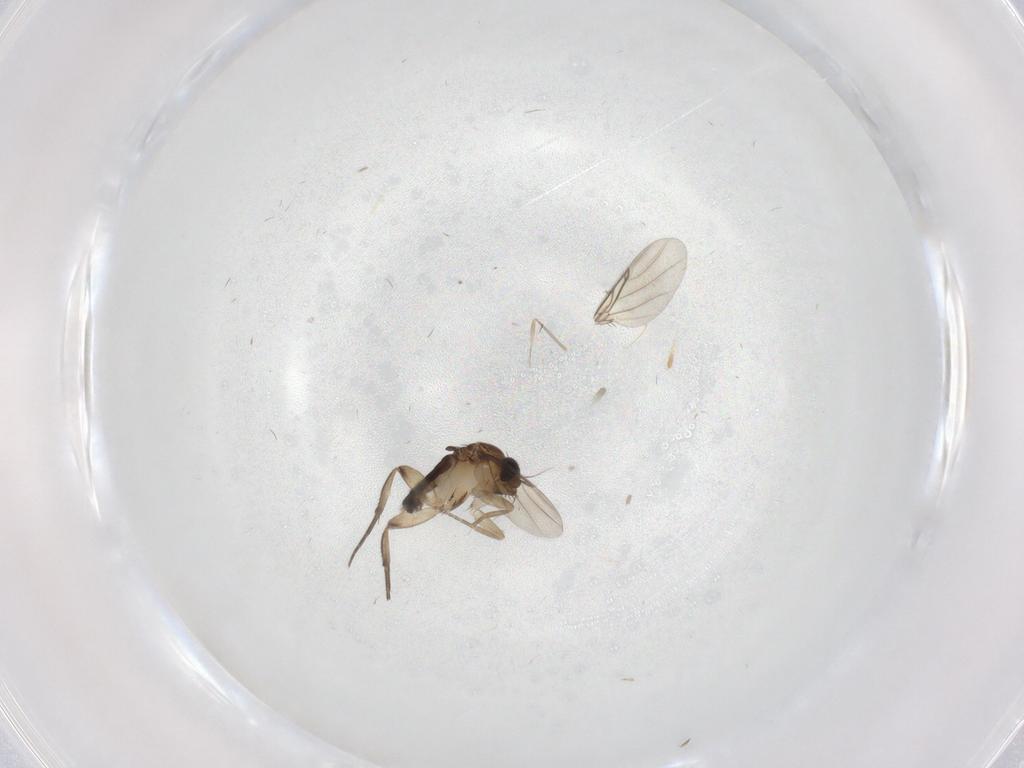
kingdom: Animalia
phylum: Arthropoda
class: Insecta
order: Diptera
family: Phoridae
